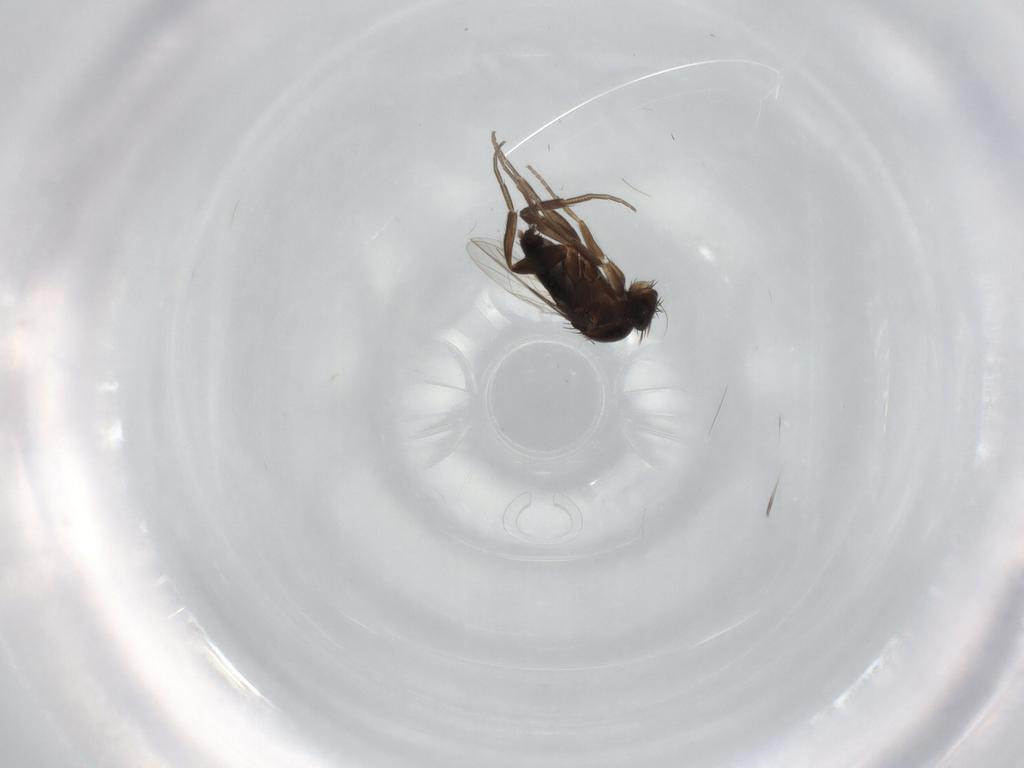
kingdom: Animalia
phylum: Arthropoda
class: Insecta
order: Diptera
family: Phoridae
